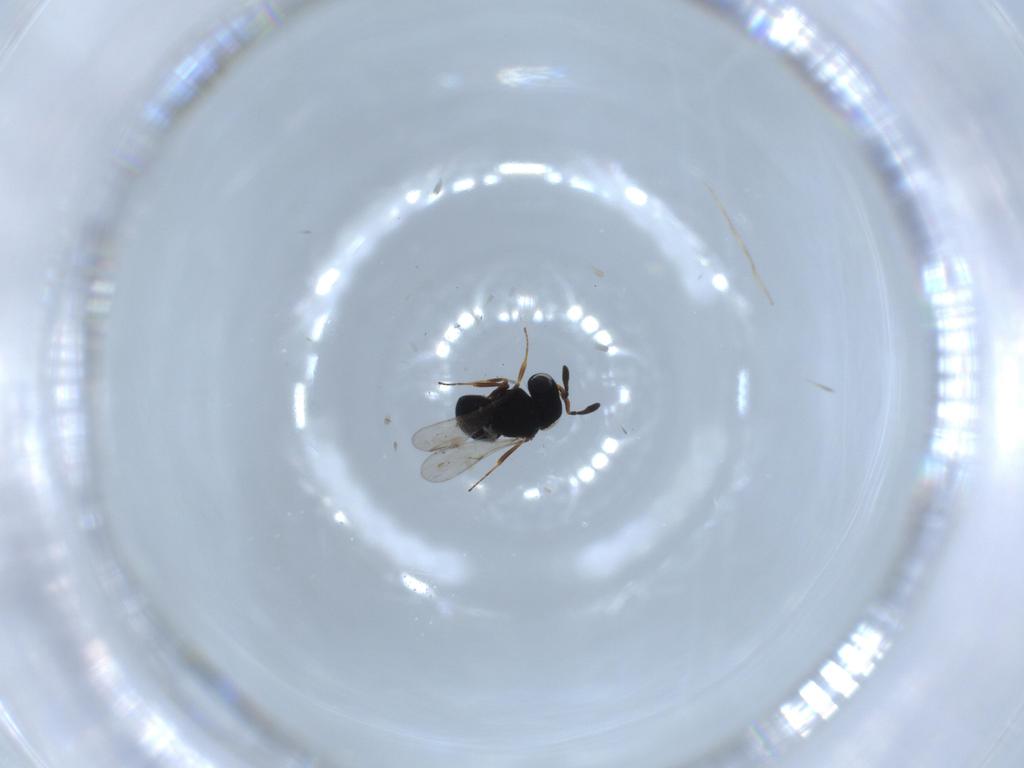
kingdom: Animalia
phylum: Arthropoda
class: Insecta
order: Hymenoptera
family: Scelionidae
